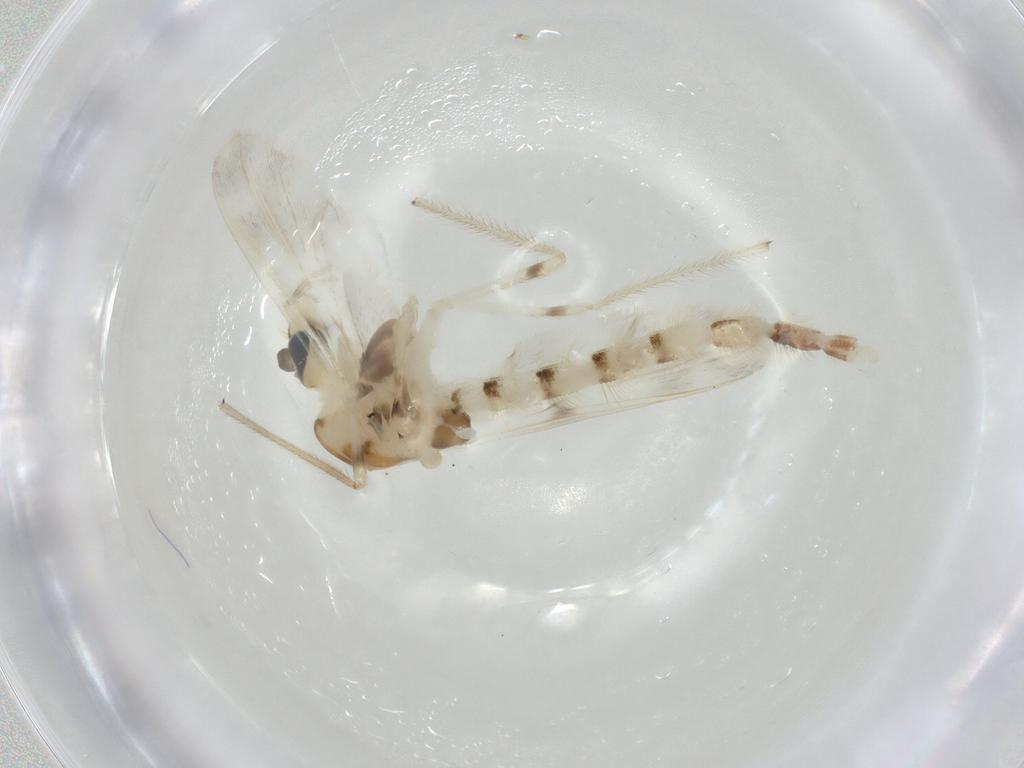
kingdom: Animalia
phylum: Arthropoda
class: Insecta
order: Diptera
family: Chironomidae
